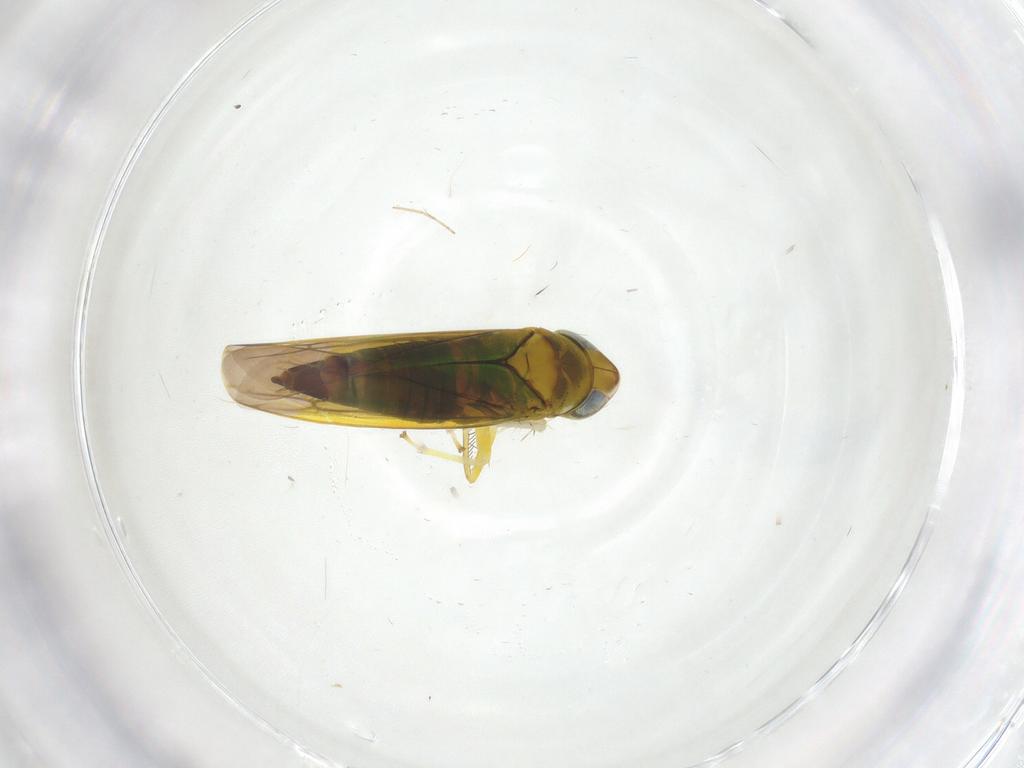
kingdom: Animalia
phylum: Arthropoda
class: Insecta
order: Hemiptera
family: Cicadellidae
